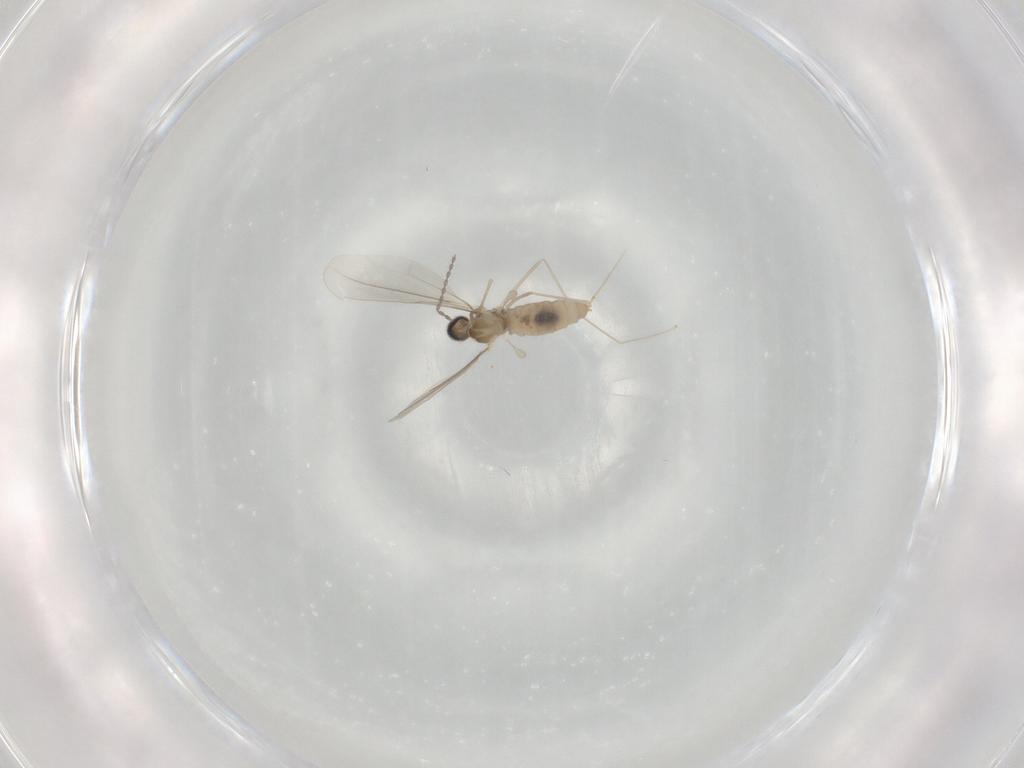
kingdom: Animalia
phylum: Arthropoda
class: Insecta
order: Diptera
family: Cecidomyiidae
